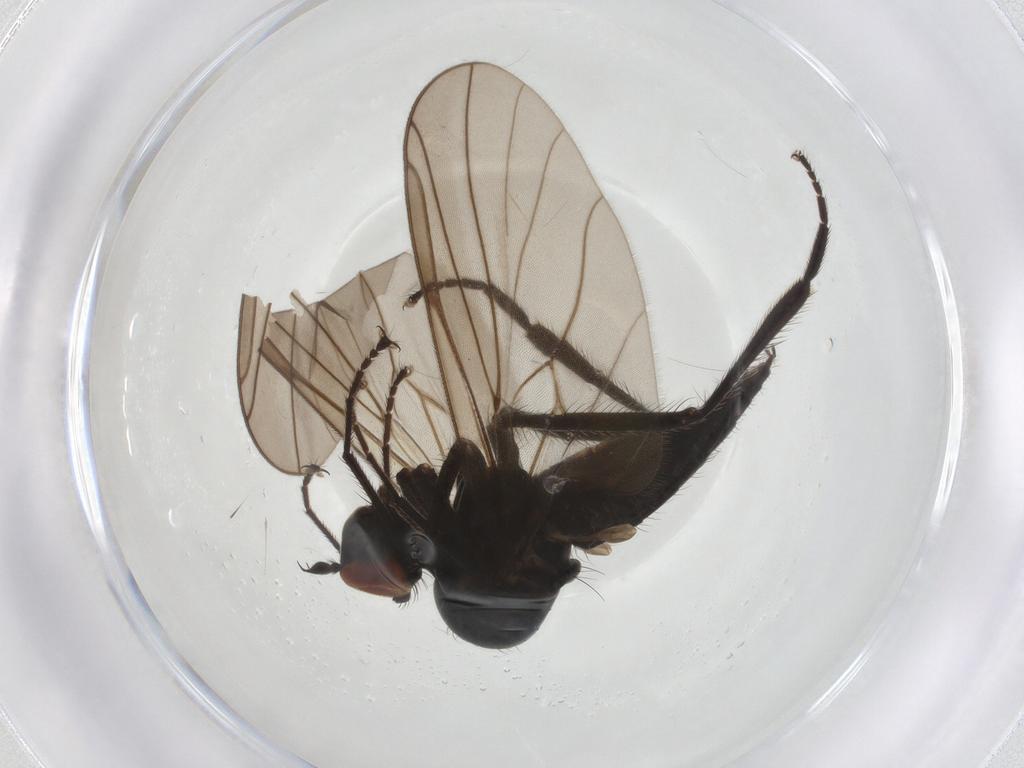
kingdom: Animalia
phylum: Arthropoda
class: Insecta
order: Diptera
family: Hybotidae
